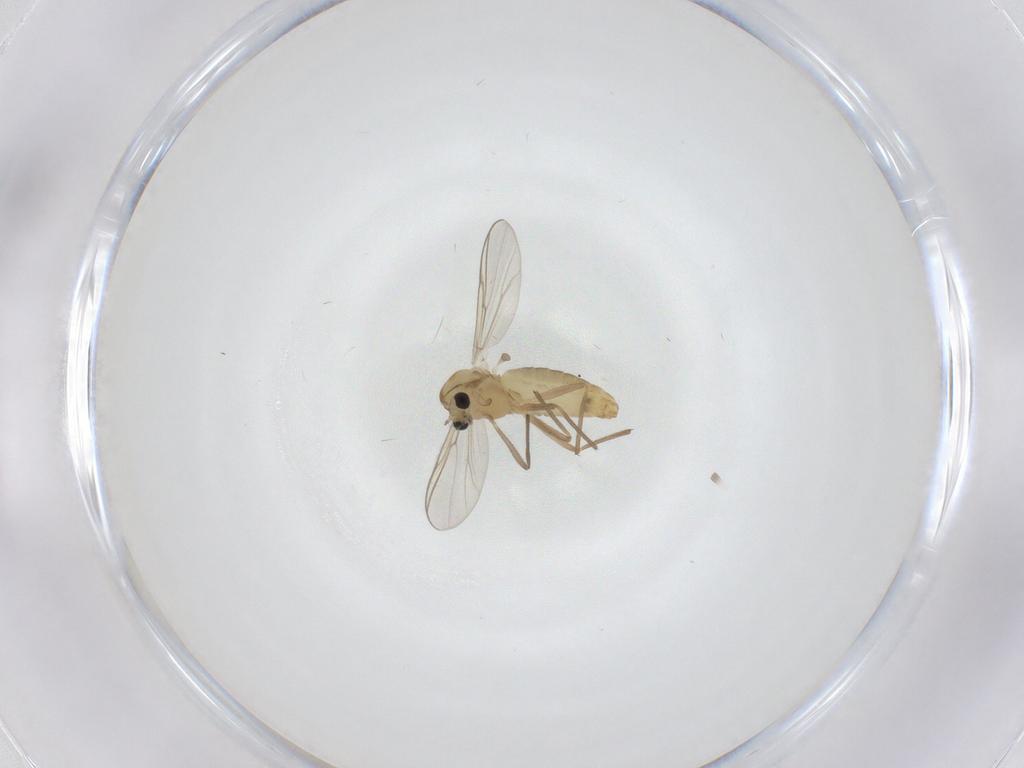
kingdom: Animalia
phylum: Arthropoda
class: Insecta
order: Diptera
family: Chironomidae
